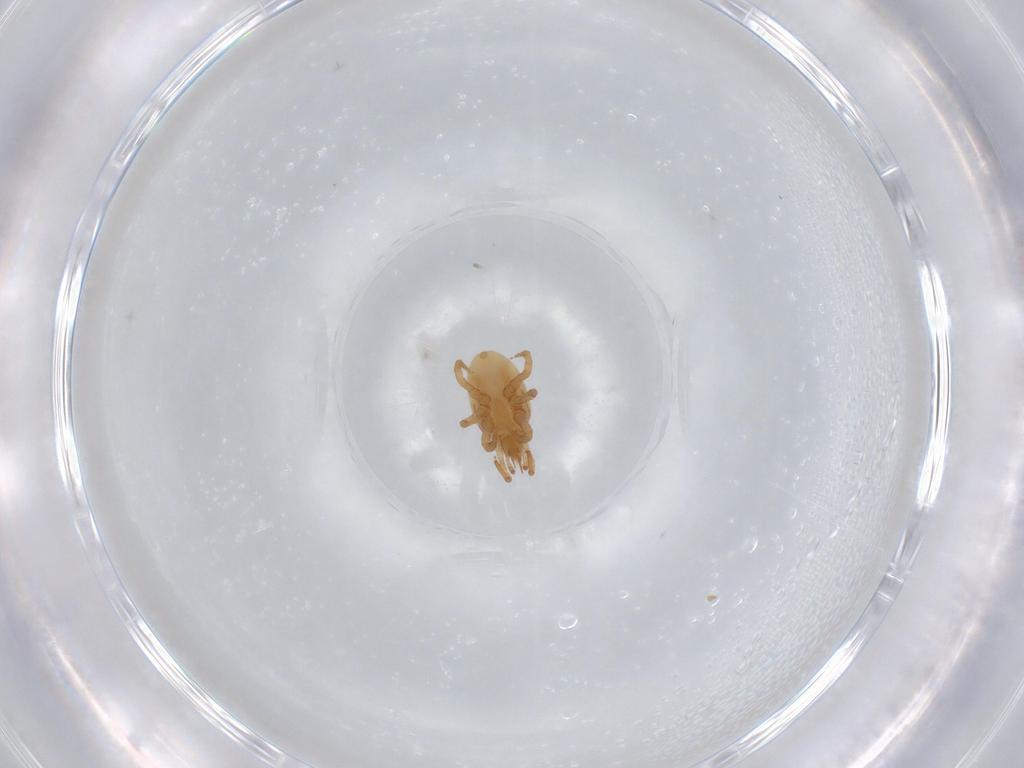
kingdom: Animalia
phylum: Arthropoda
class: Arachnida
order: Trombidiformes
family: Bdellidae
